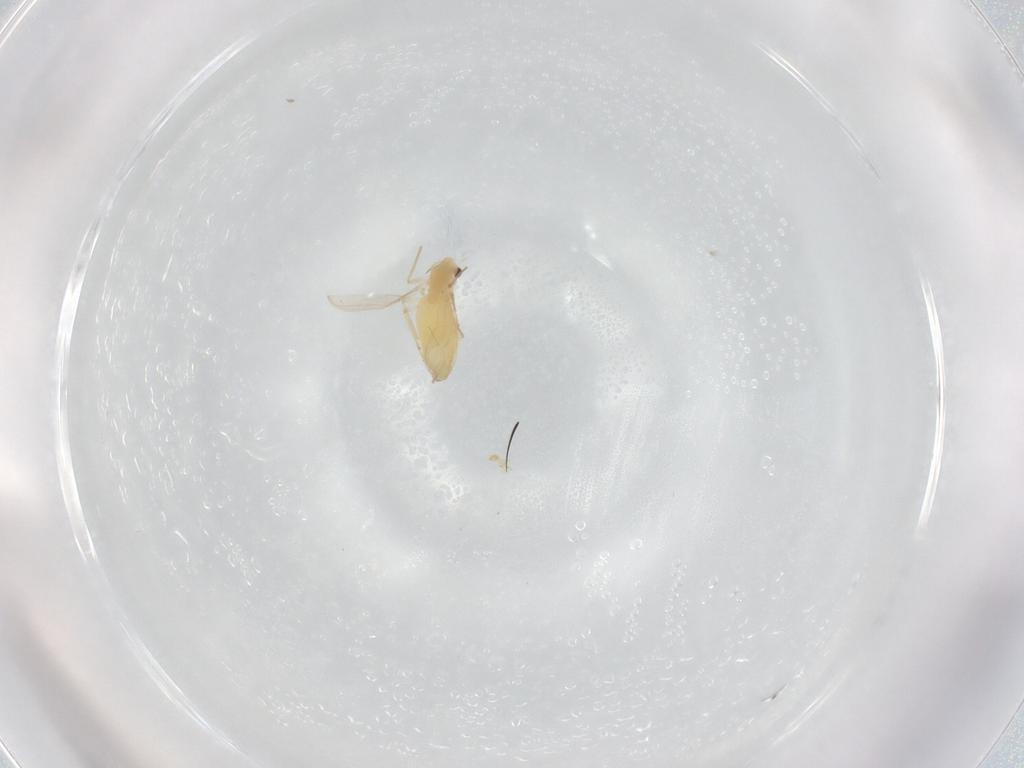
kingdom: Animalia
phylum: Arthropoda
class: Insecta
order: Diptera
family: Chironomidae
